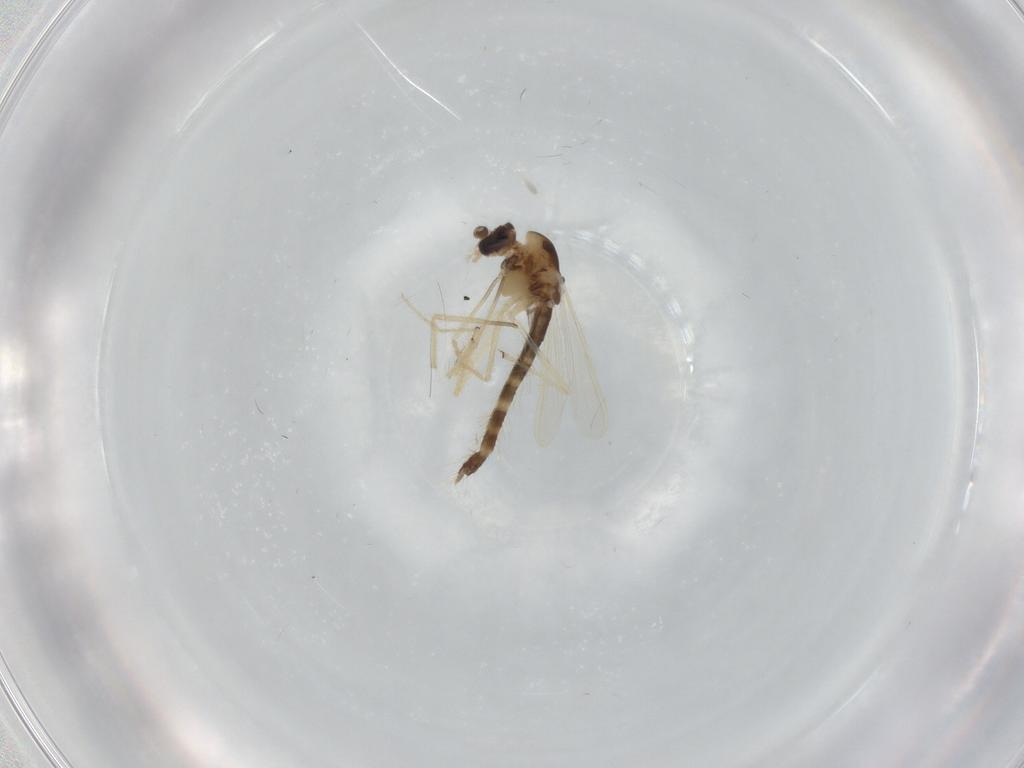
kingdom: Animalia
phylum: Arthropoda
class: Insecta
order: Diptera
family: Chironomidae
